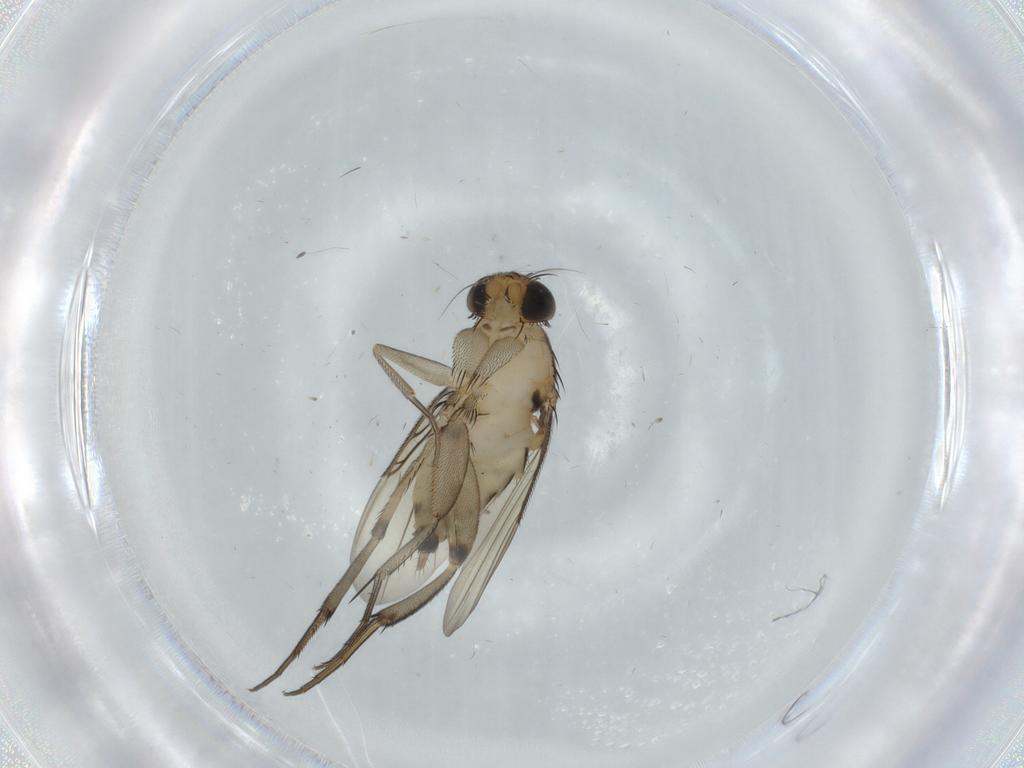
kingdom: Animalia
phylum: Arthropoda
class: Insecta
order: Diptera
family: Phoridae
